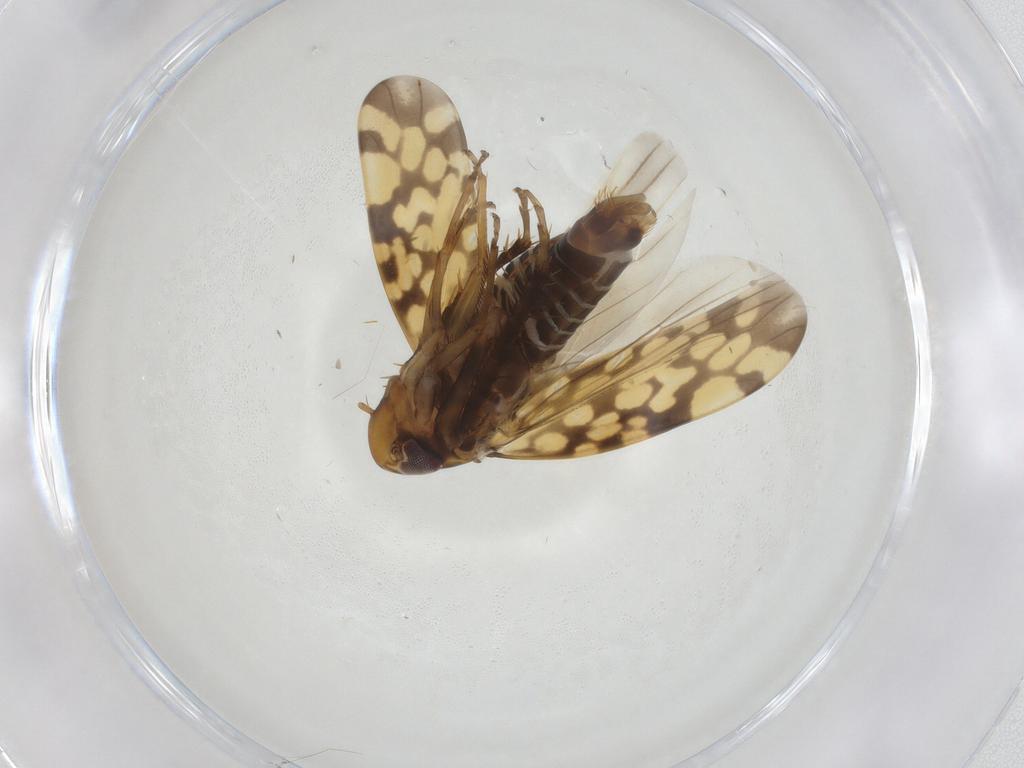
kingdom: Animalia
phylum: Arthropoda
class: Insecta
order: Hemiptera
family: Cicadellidae
